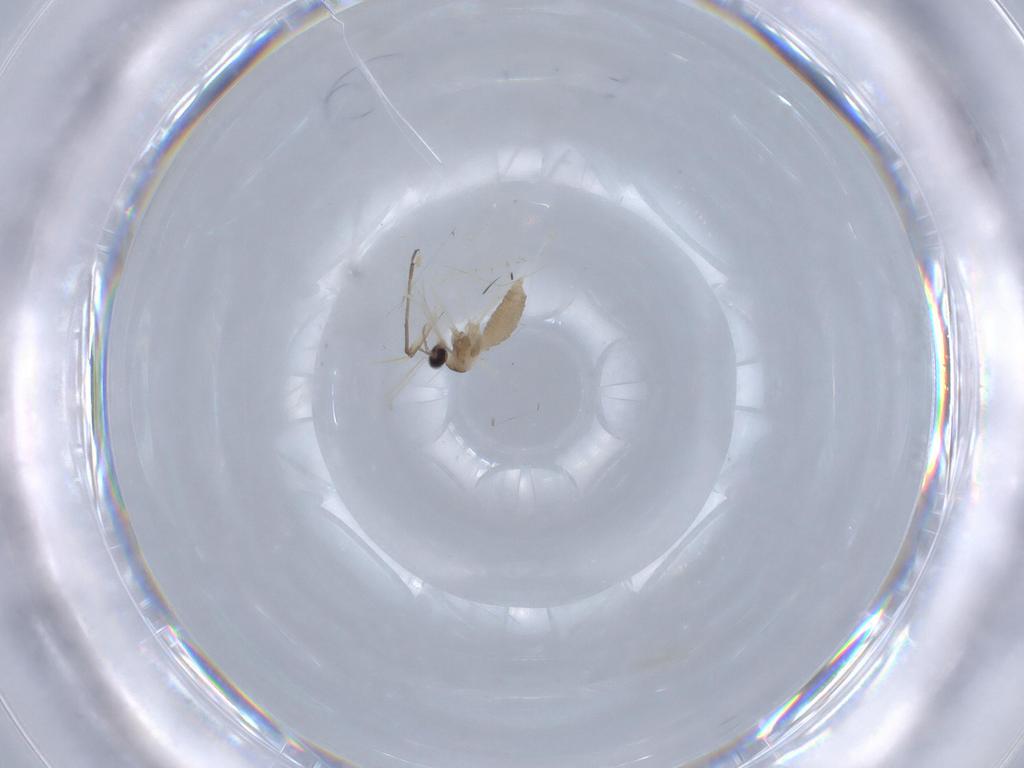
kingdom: Animalia
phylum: Arthropoda
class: Insecta
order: Diptera
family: Cecidomyiidae
